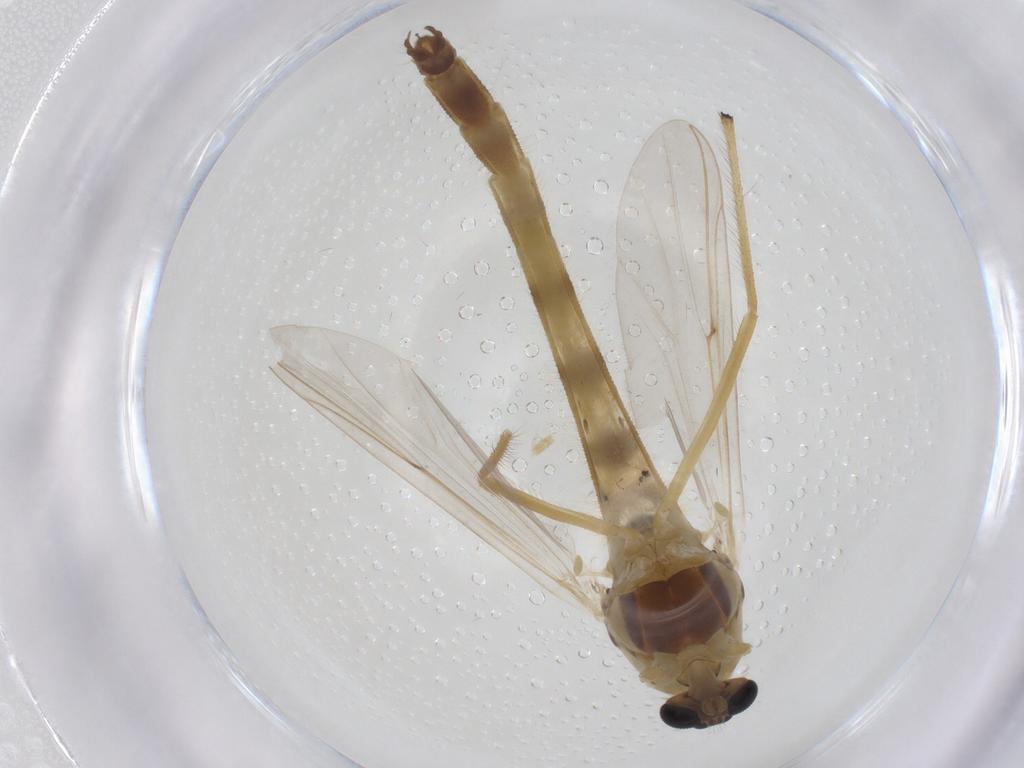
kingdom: Animalia
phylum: Arthropoda
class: Insecta
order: Diptera
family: Chironomidae
